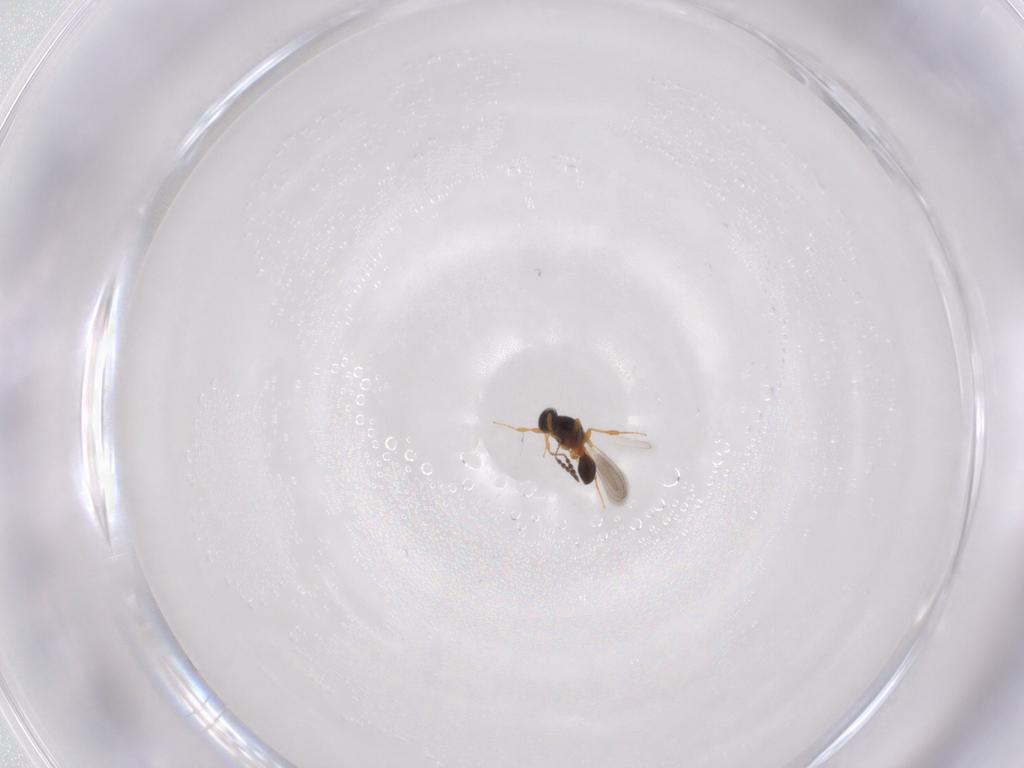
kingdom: Animalia
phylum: Arthropoda
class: Insecta
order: Hymenoptera
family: Platygastridae
